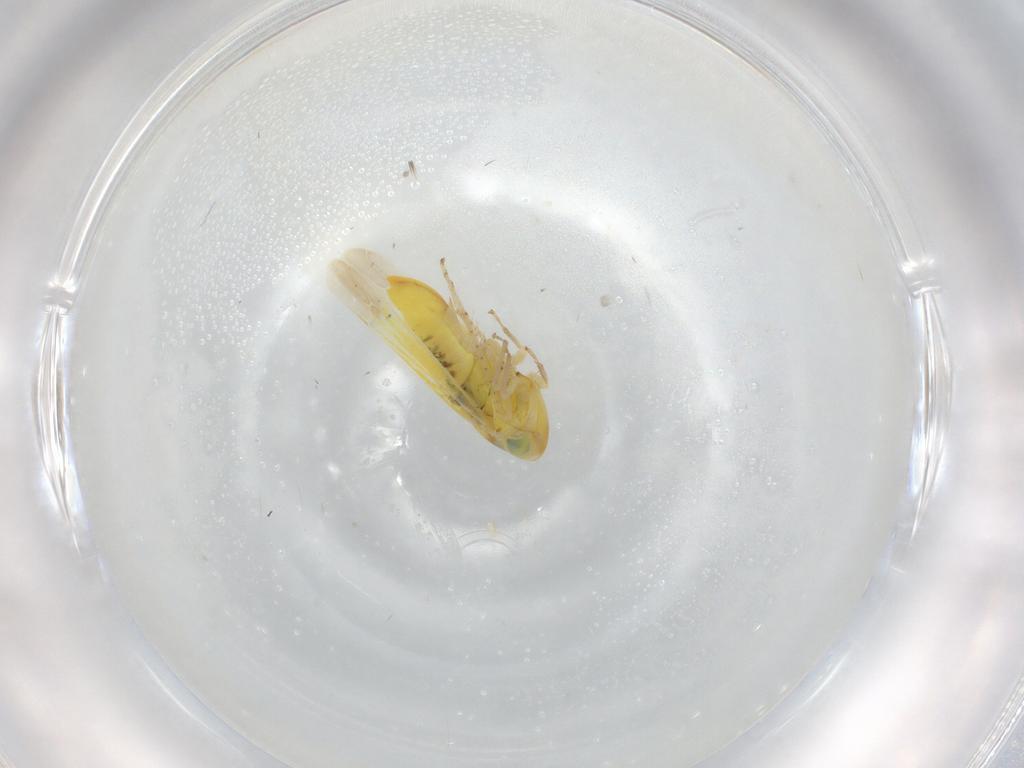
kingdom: Animalia
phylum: Arthropoda
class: Insecta
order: Hemiptera
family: Cicadellidae
